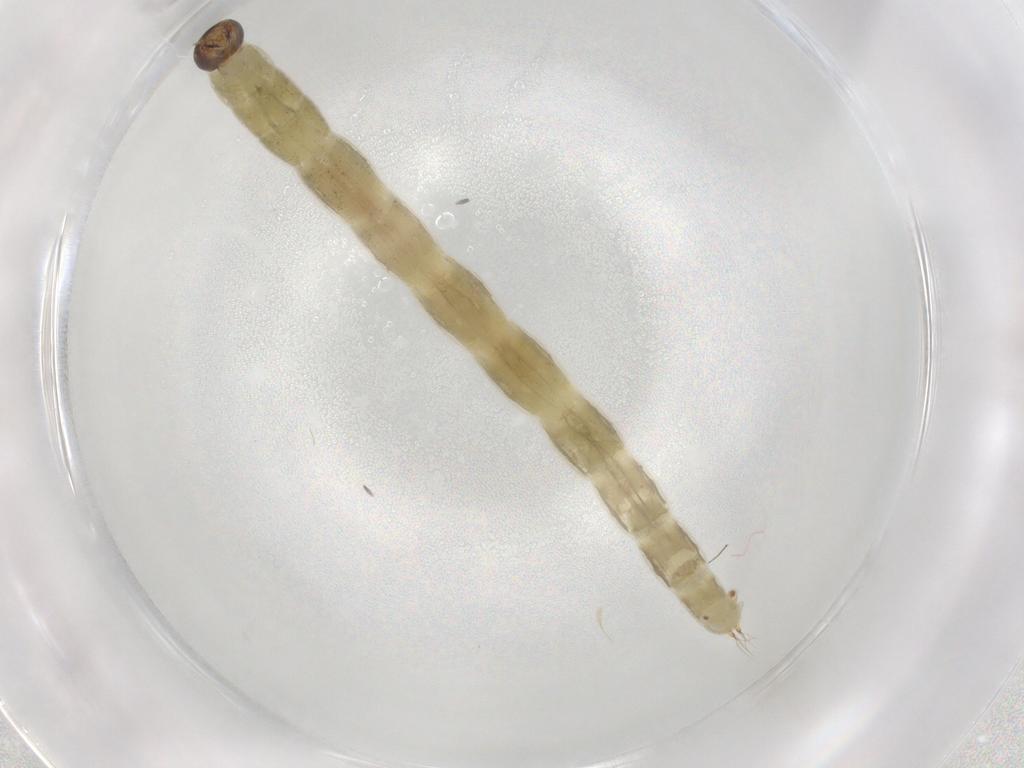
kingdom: Animalia
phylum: Arthropoda
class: Insecta
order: Diptera
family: Chironomidae
